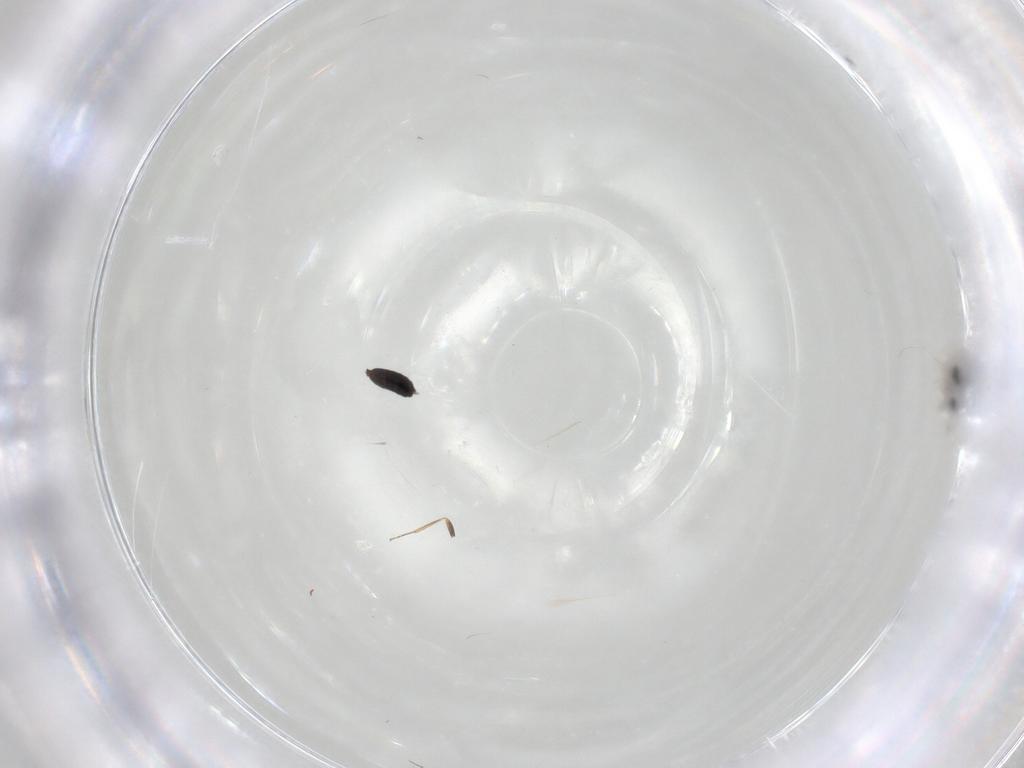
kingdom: Animalia
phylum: Arthropoda
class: Insecta
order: Hymenoptera
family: Pteromalidae
